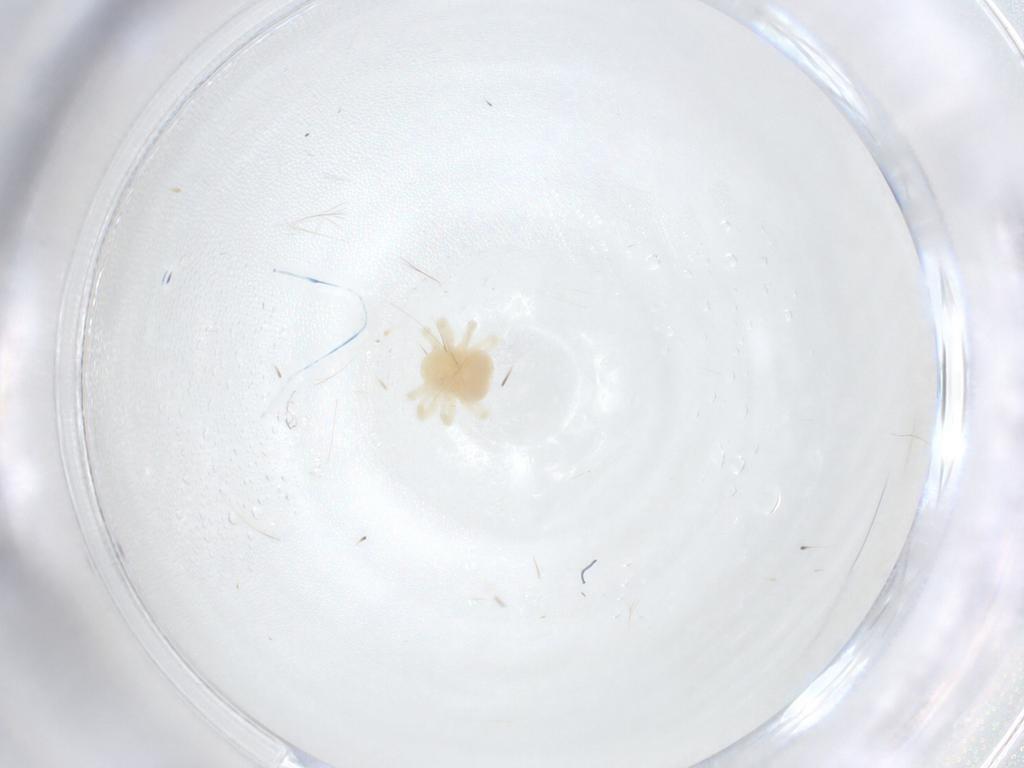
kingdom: Animalia
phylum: Arthropoda
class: Arachnida
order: Trombidiformes
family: Anystidae
